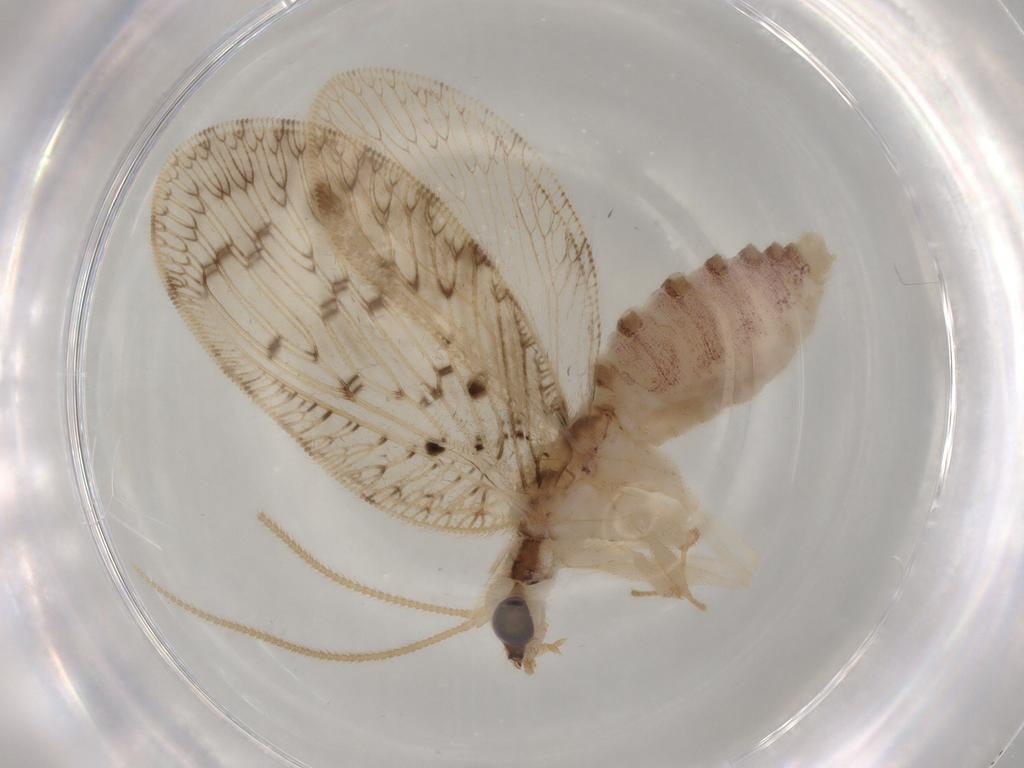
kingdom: Animalia
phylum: Arthropoda
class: Insecta
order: Neuroptera
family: Hemerobiidae
